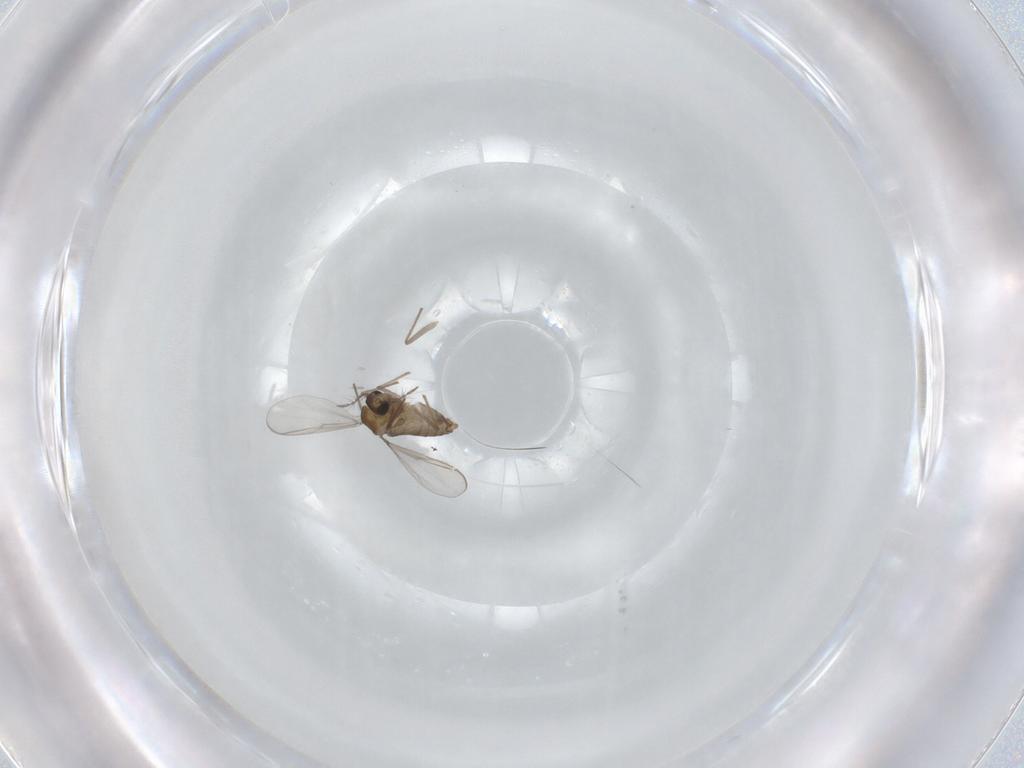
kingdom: Animalia
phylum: Arthropoda
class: Insecta
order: Diptera
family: Chironomidae
